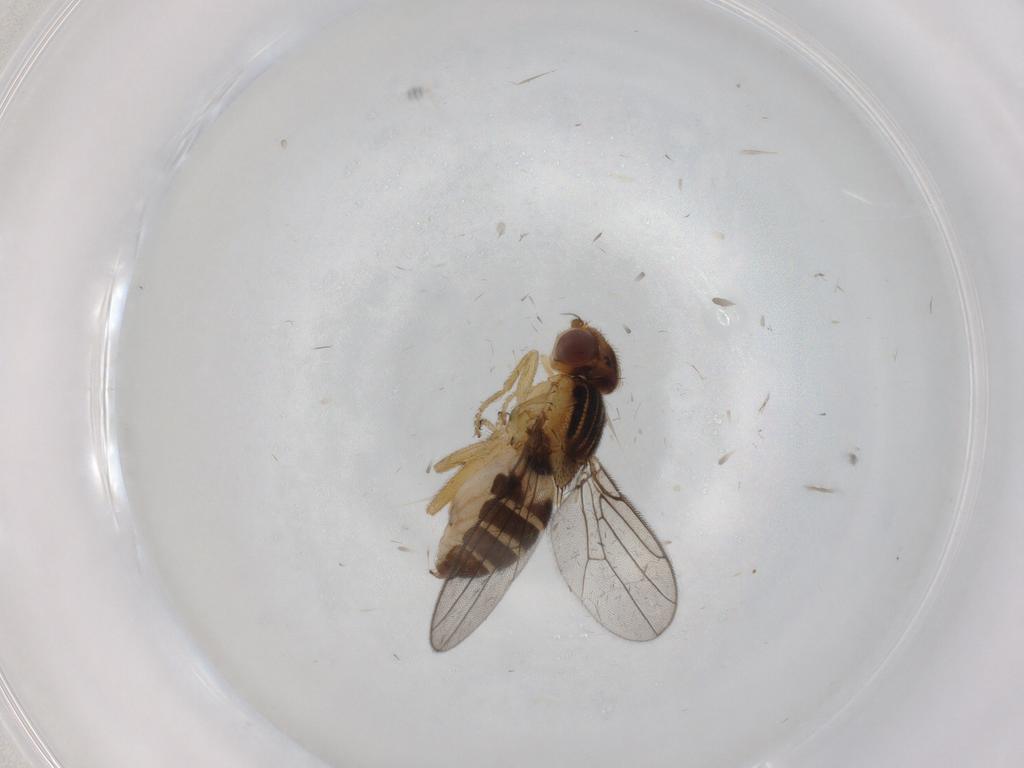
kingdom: Animalia
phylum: Arthropoda
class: Insecta
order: Diptera
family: Chloropidae
